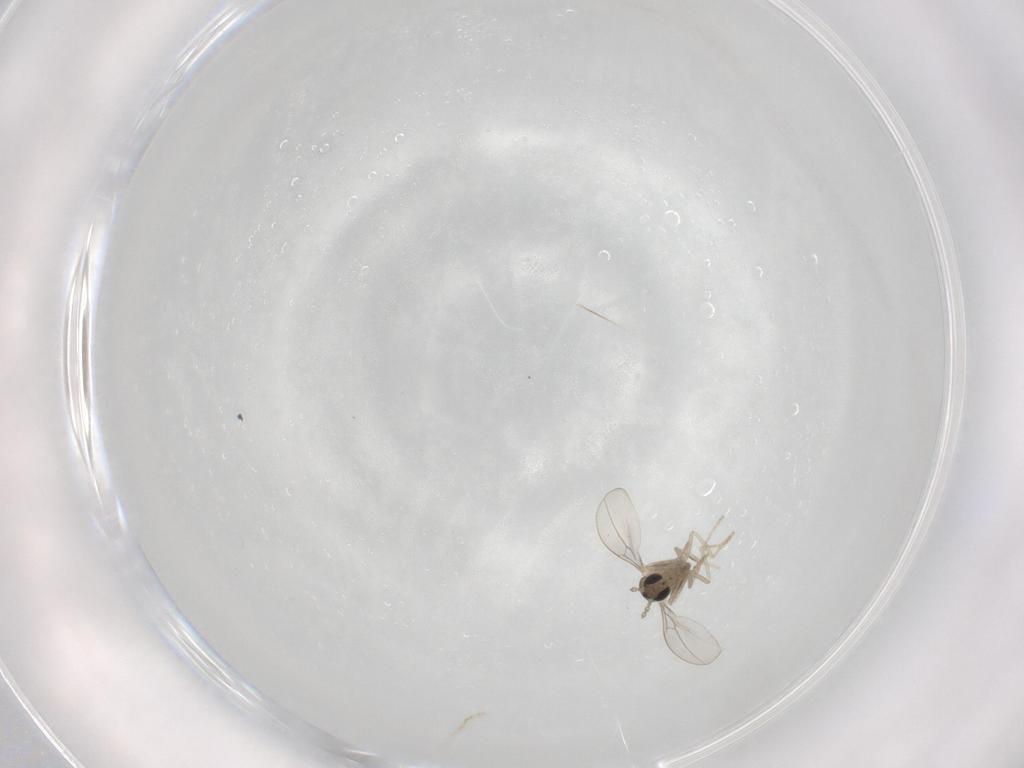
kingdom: Animalia
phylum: Arthropoda
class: Insecta
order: Diptera
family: Cecidomyiidae
